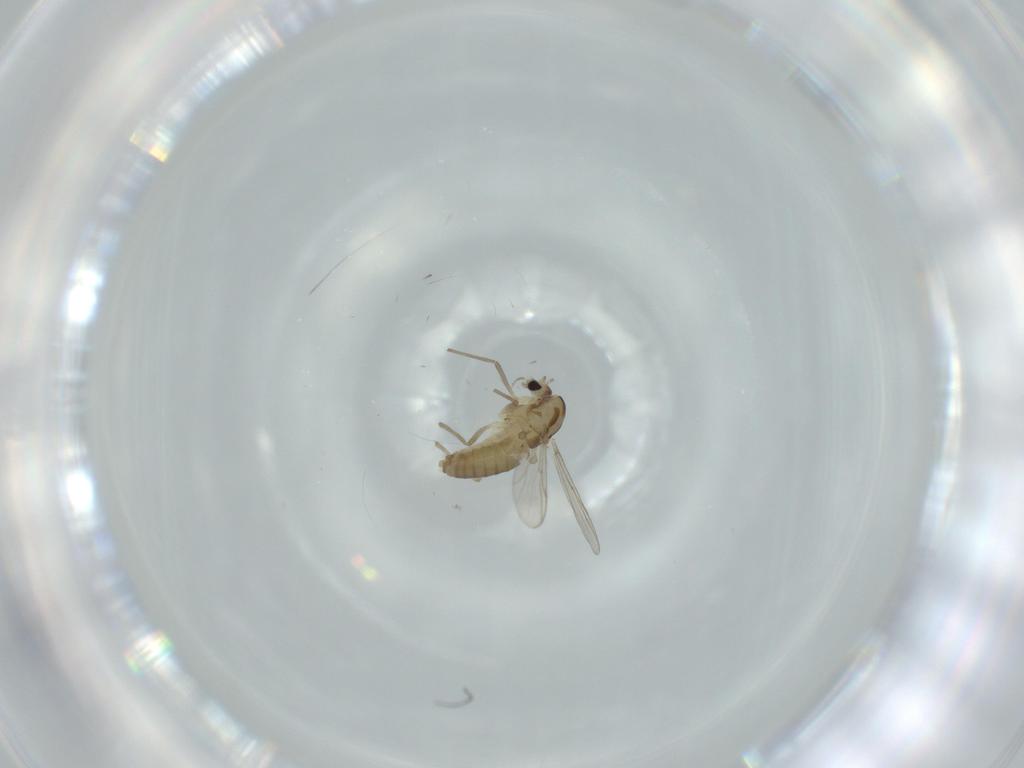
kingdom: Animalia
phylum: Arthropoda
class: Insecta
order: Diptera
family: Chironomidae
